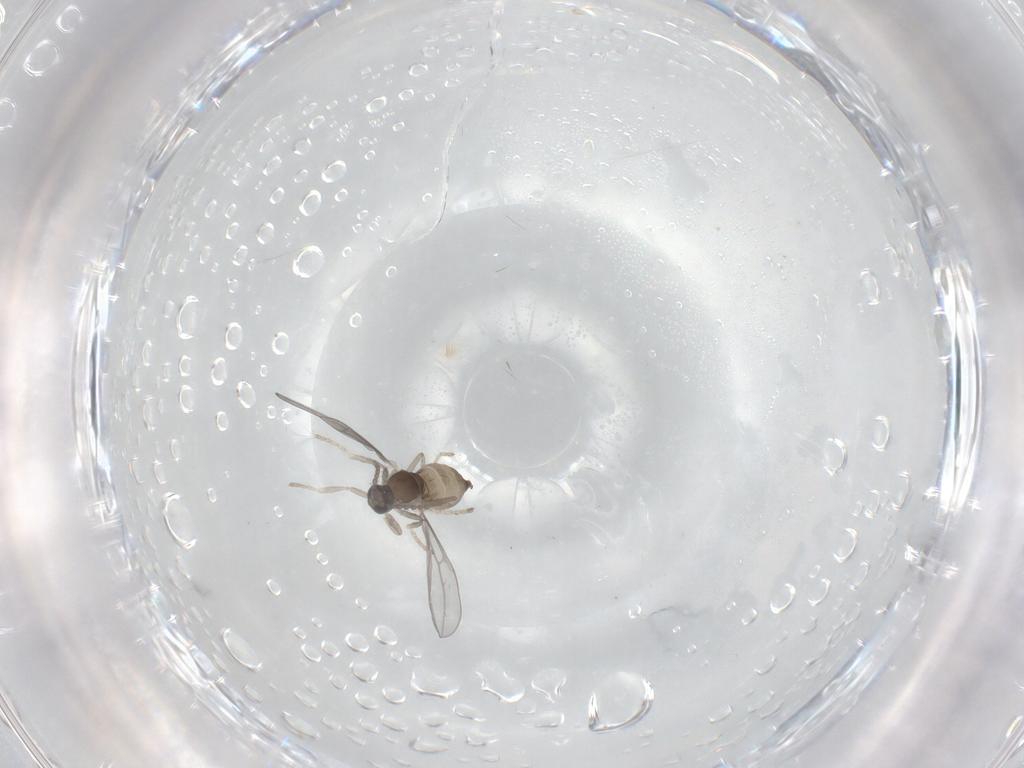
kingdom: Animalia
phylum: Arthropoda
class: Insecta
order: Diptera
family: Sciaridae
